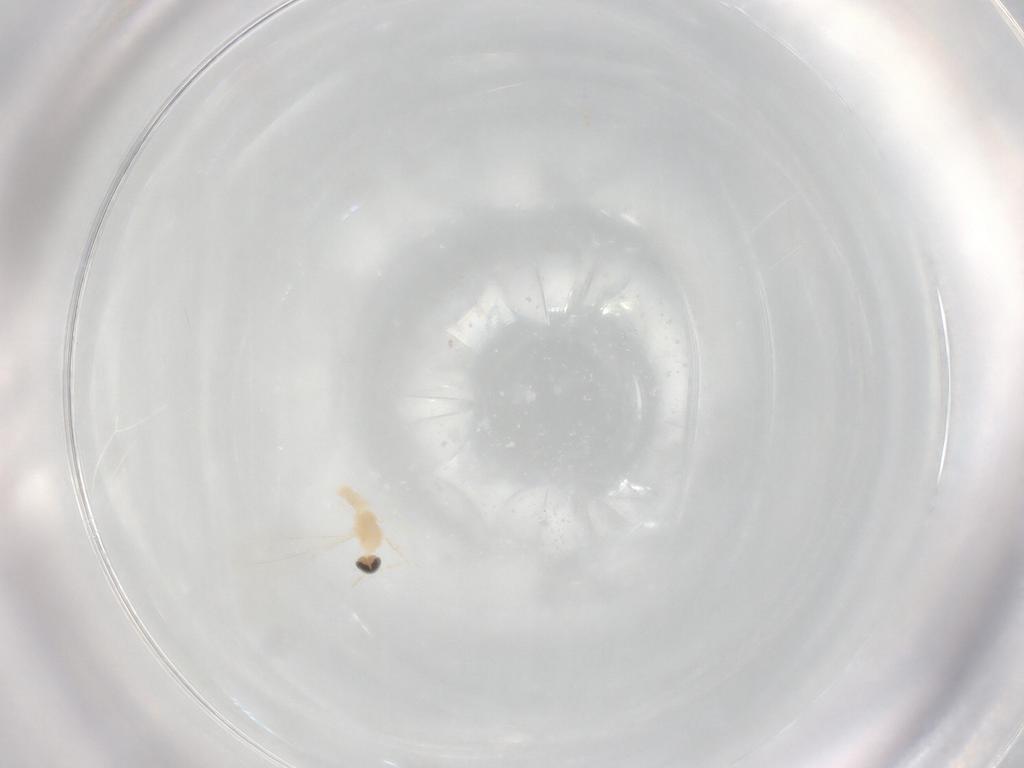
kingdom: Animalia
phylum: Arthropoda
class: Insecta
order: Diptera
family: Cecidomyiidae
